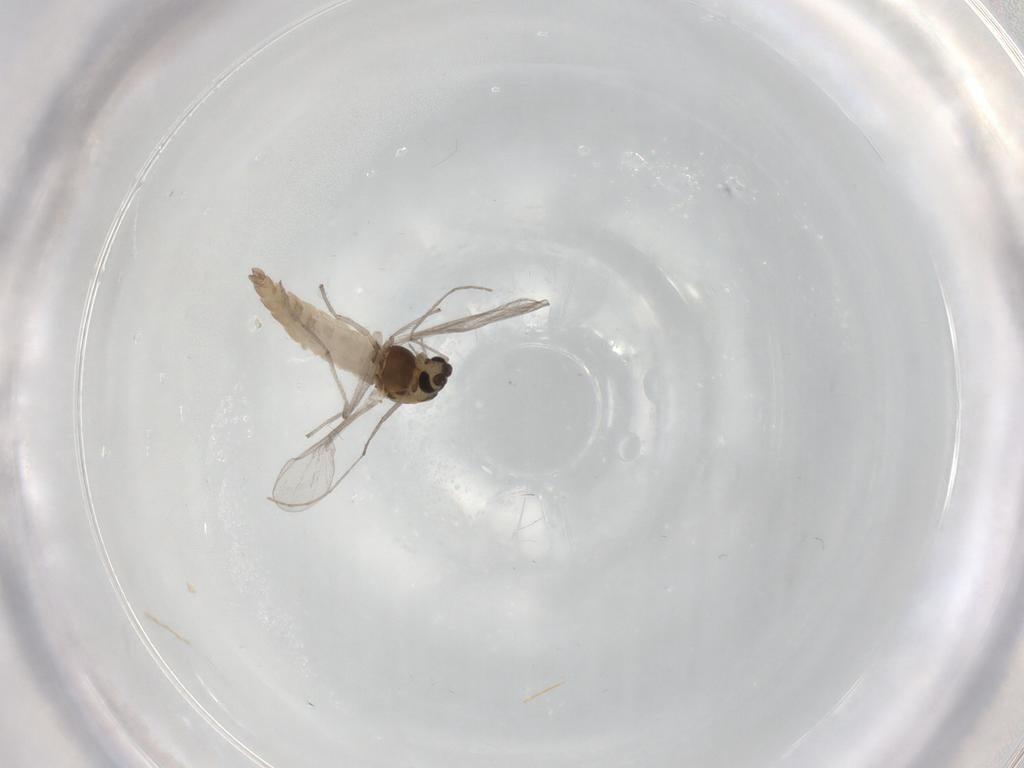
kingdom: Animalia
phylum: Arthropoda
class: Insecta
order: Diptera
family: Chironomidae
